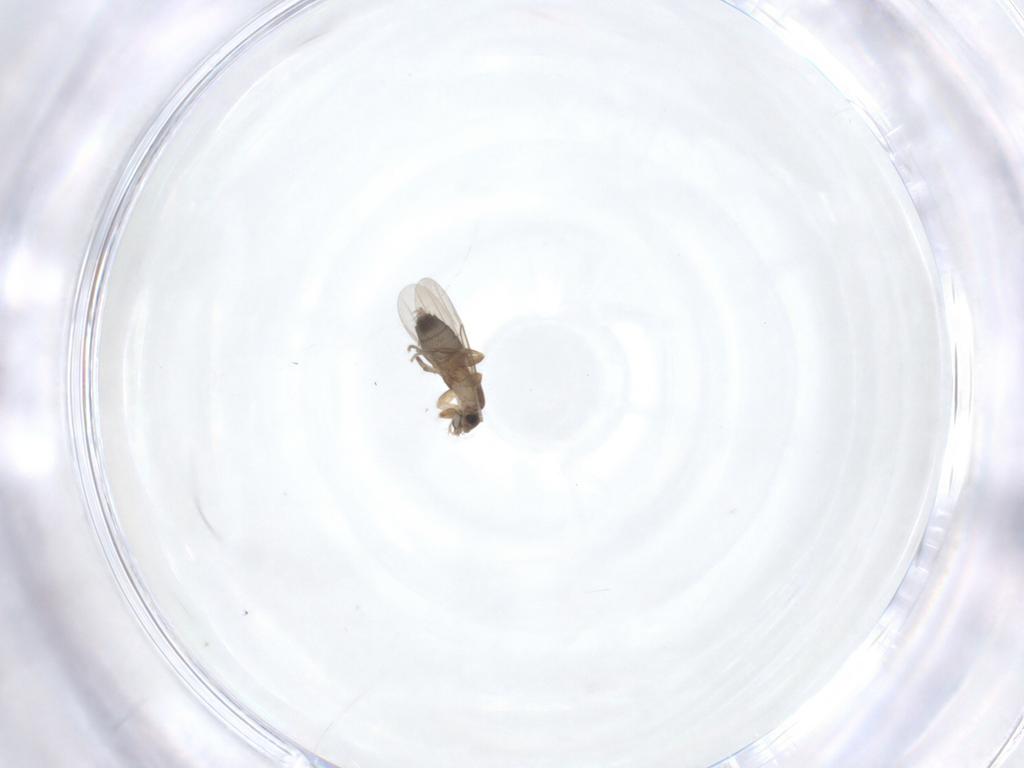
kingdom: Animalia
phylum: Arthropoda
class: Insecta
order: Diptera
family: Phoridae
